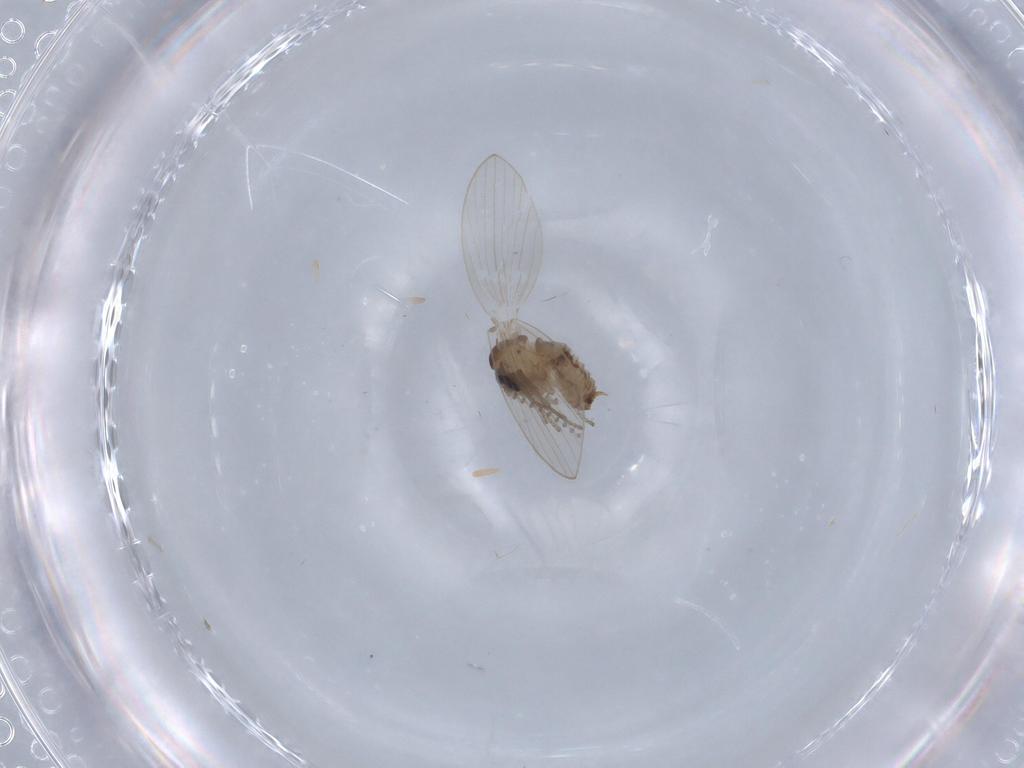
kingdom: Animalia
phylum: Arthropoda
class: Insecta
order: Diptera
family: Psychodidae
